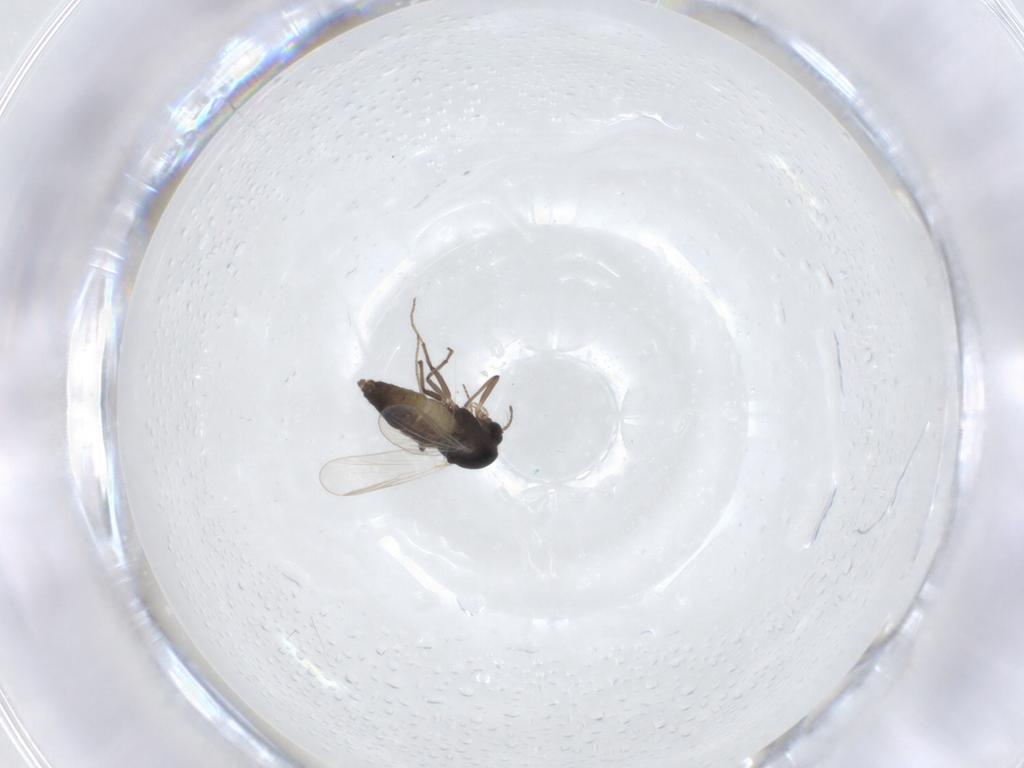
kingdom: Animalia
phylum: Arthropoda
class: Insecta
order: Diptera
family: Chironomidae
